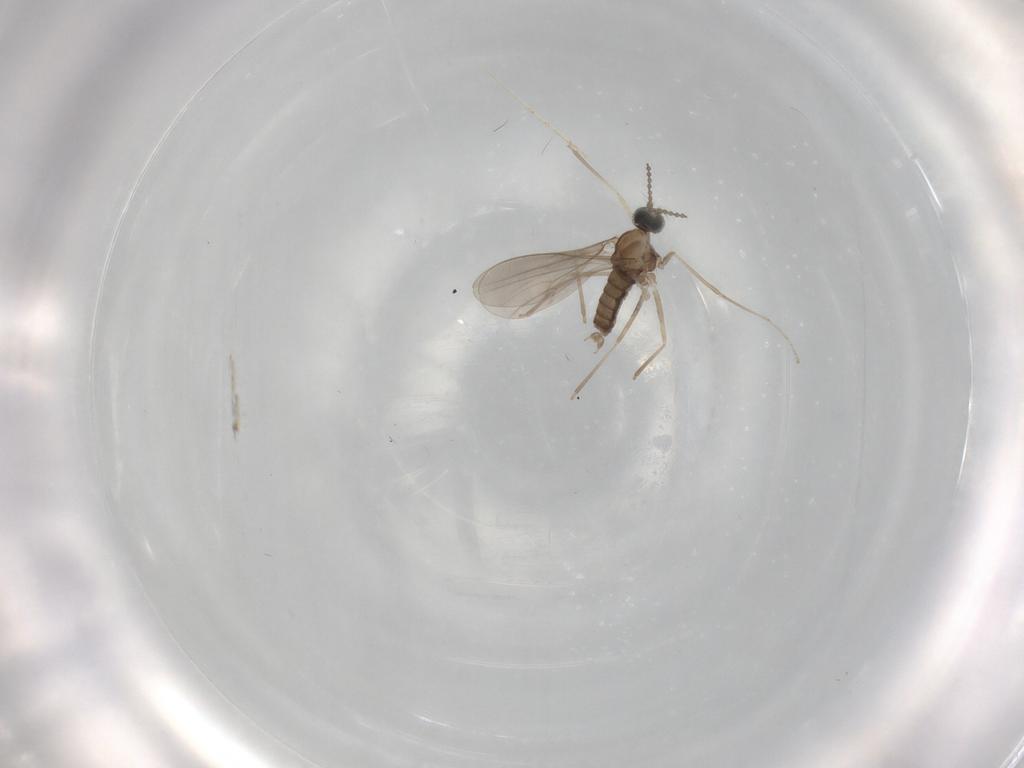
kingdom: Animalia
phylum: Arthropoda
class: Insecta
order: Diptera
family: Cecidomyiidae
